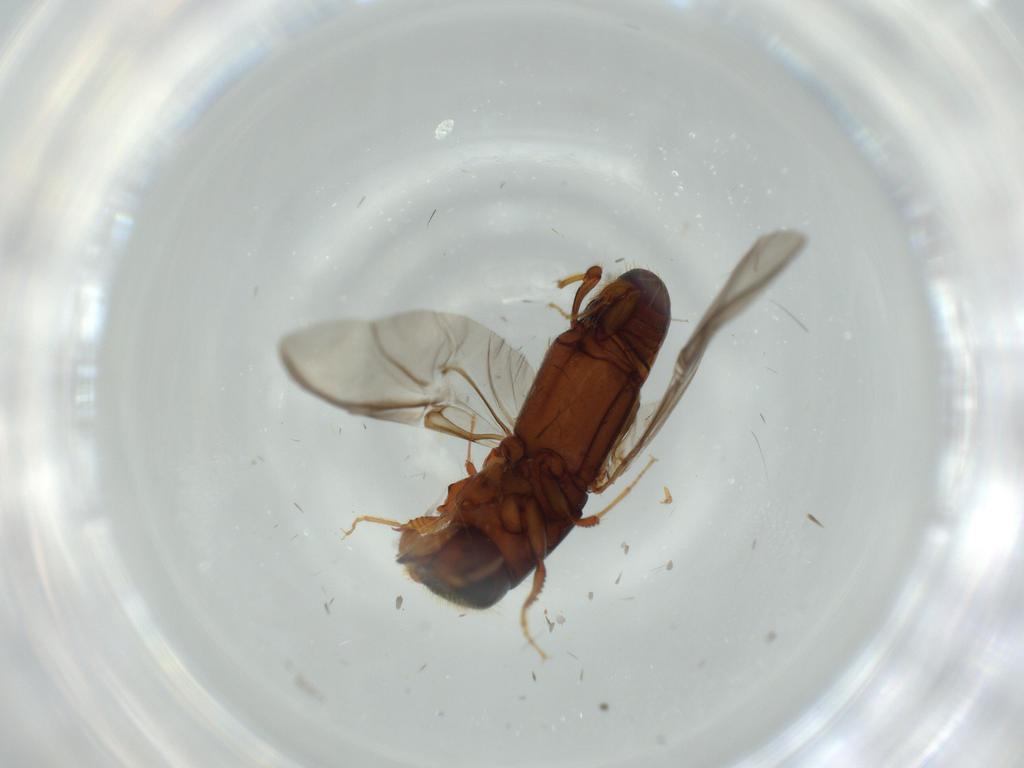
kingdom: Animalia
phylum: Arthropoda
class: Insecta
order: Coleoptera
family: Curculionidae
